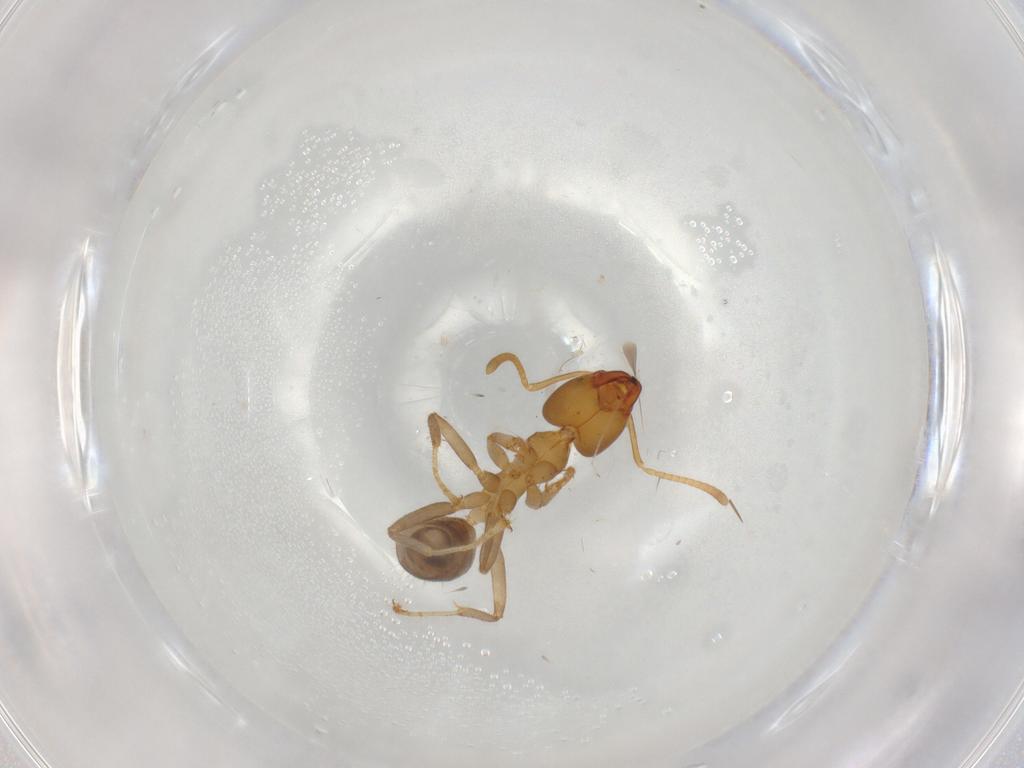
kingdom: Animalia
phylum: Arthropoda
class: Insecta
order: Hymenoptera
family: Formicidae
